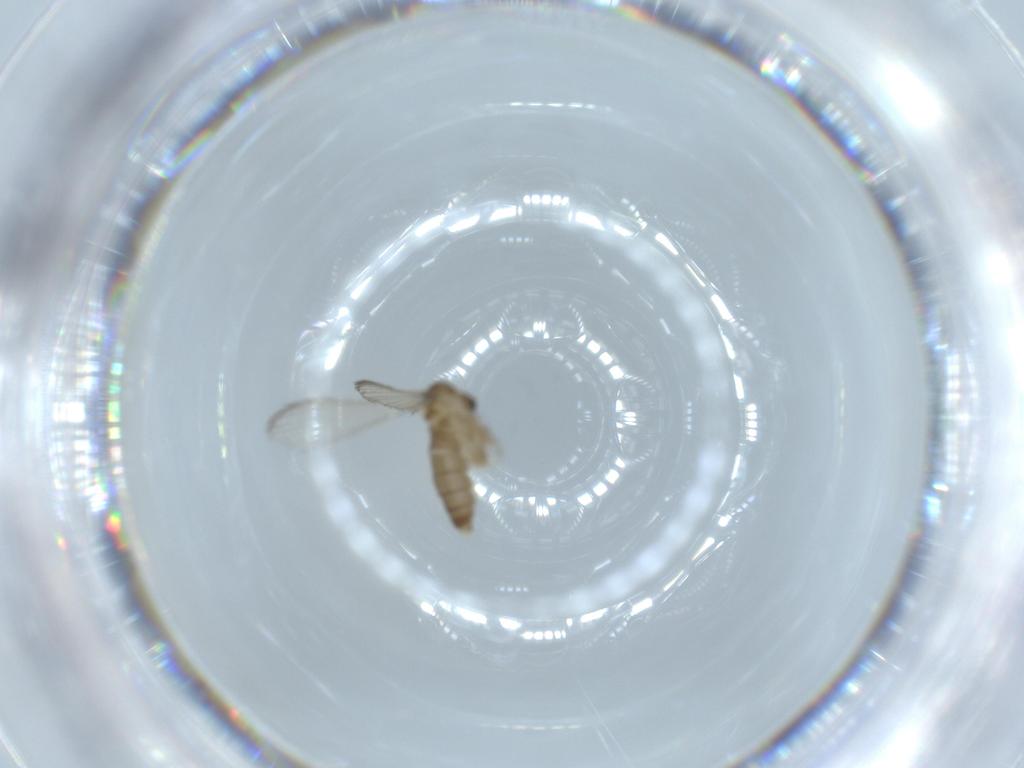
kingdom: Animalia
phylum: Arthropoda
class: Insecta
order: Diptera
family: Psychodidae
